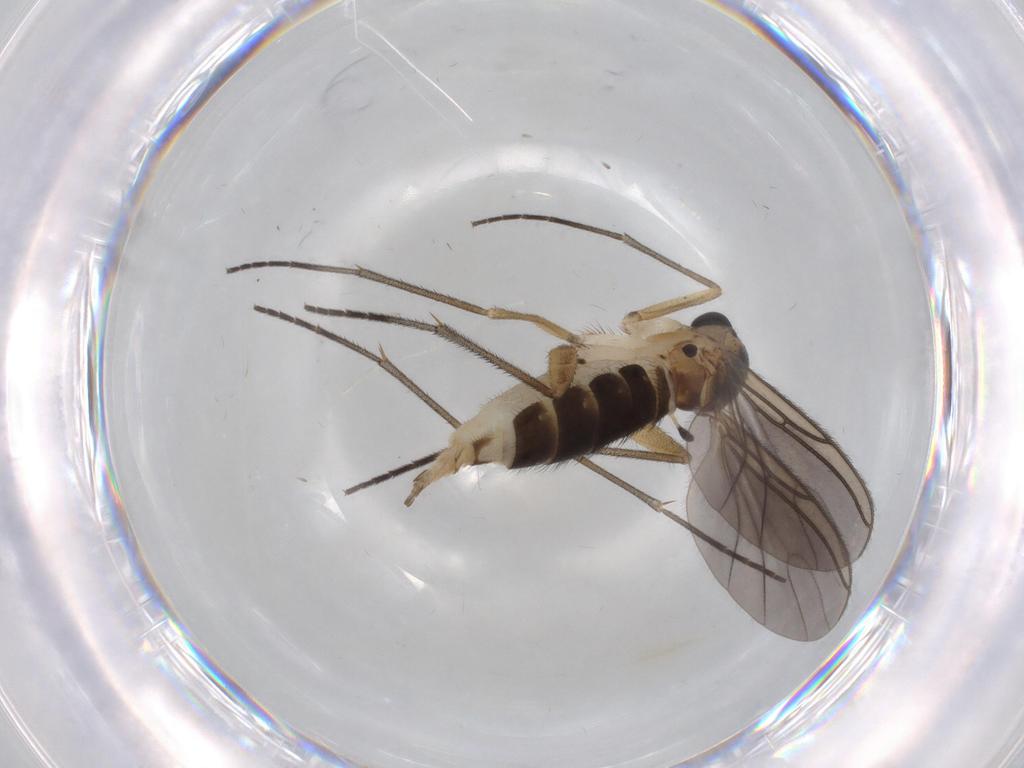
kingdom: Animalia
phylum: Arthropoda
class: Insecta
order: Diptera
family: Sciaridae
